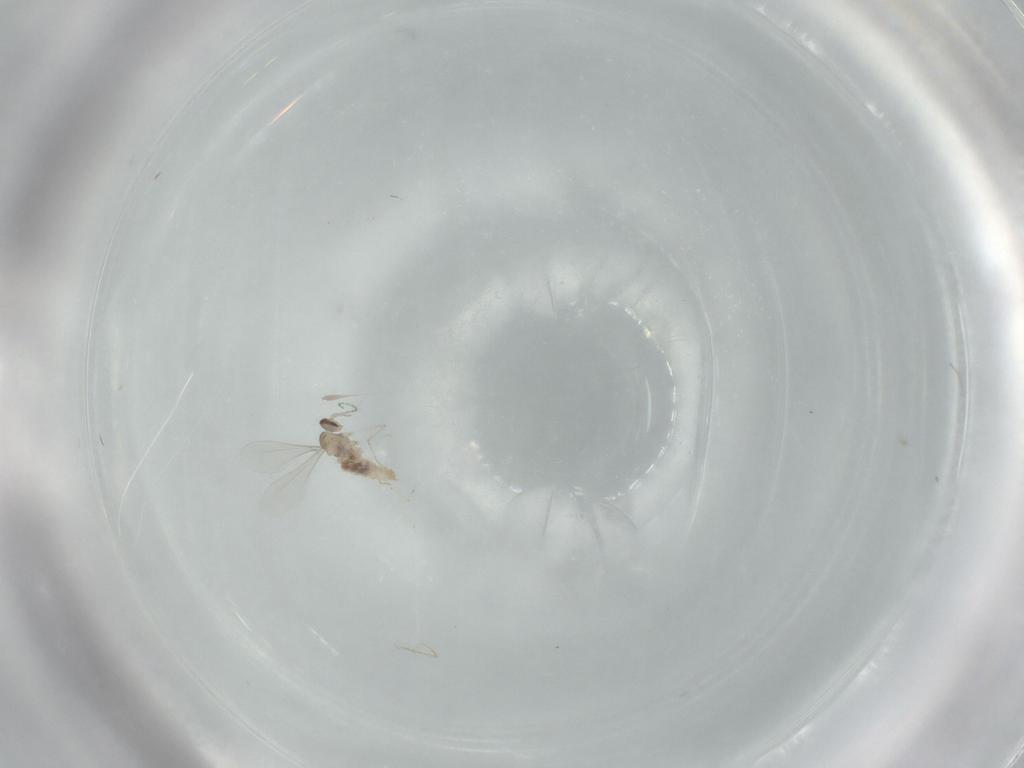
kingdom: Animalia
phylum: Arthropoda
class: Insecta
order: Diptera
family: Cecidomyiidae
